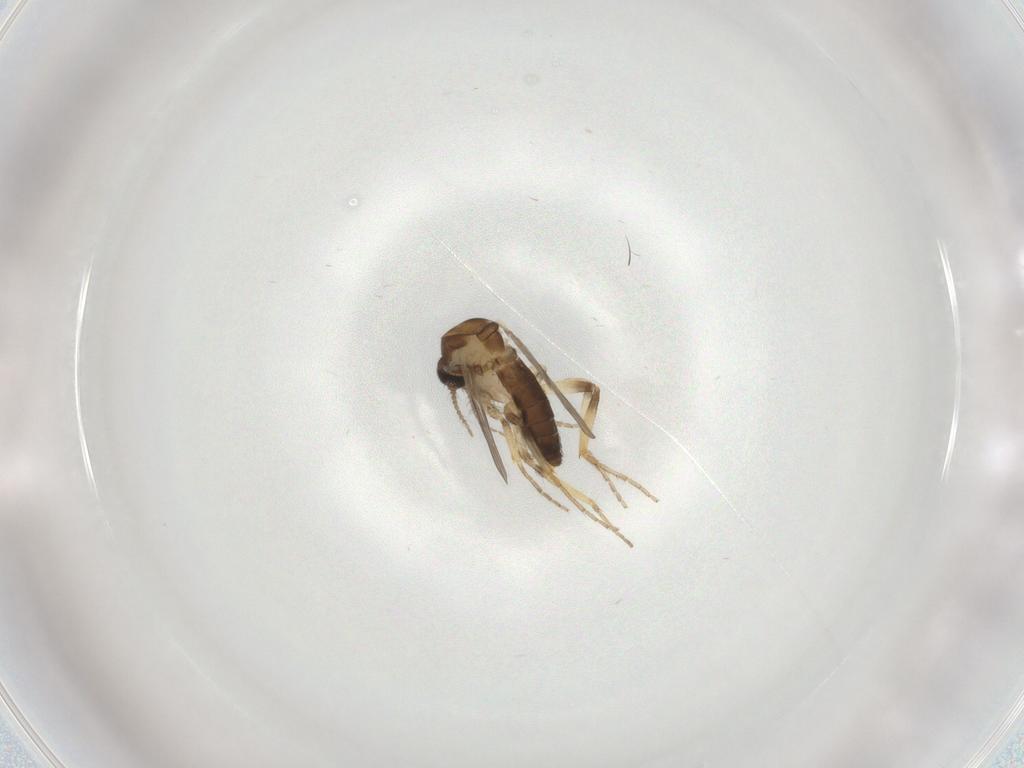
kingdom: Animalia
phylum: Arthropoda
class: Insecta
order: Diptera
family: Ceratopogonidae
